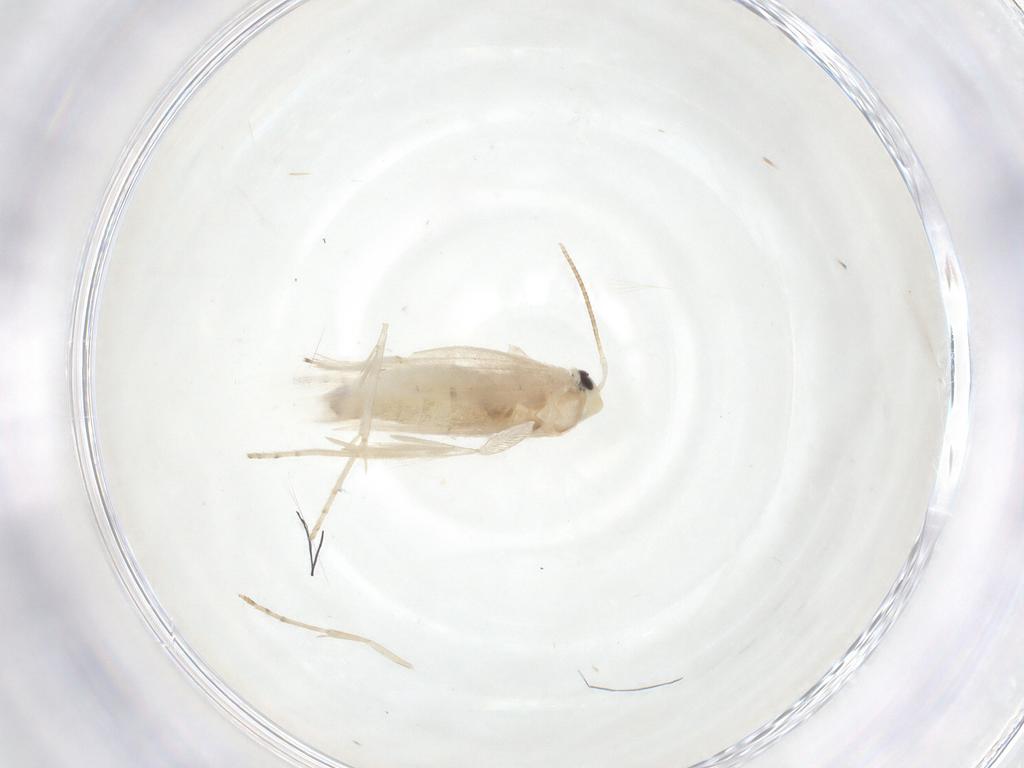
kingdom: Animalia
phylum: Arthropoda
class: Insecta
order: Lepidoptera
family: Lyonetiidae
